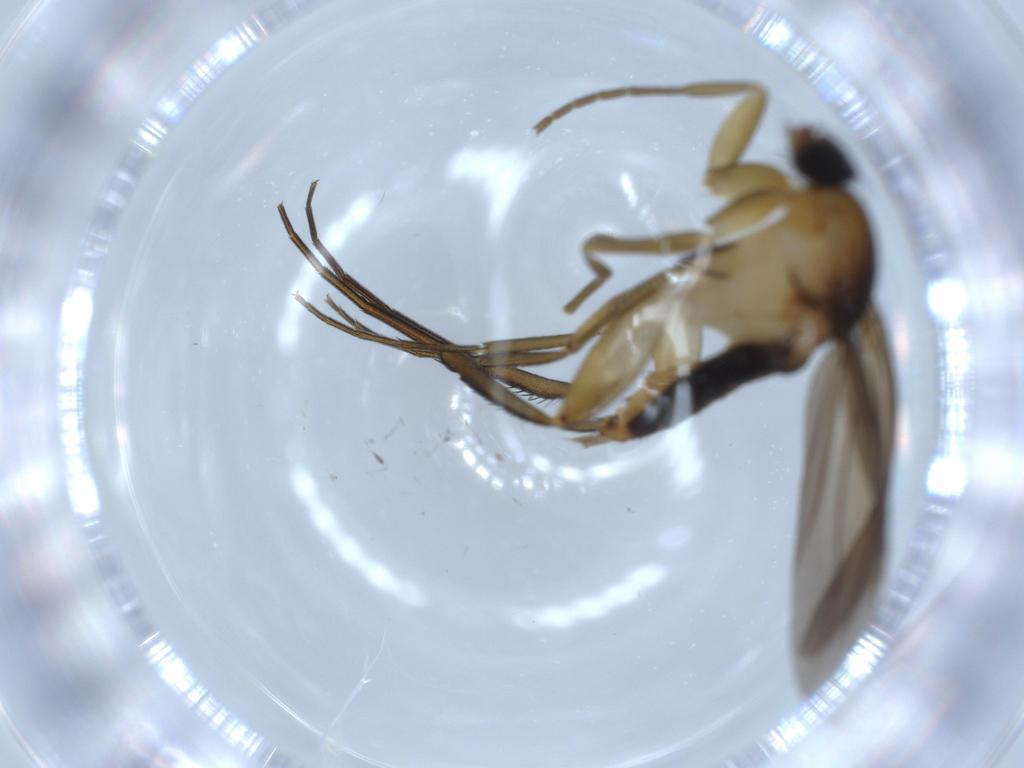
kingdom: Animalia
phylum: Arthropoda
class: Insecta
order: Diptera
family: Phoridae
